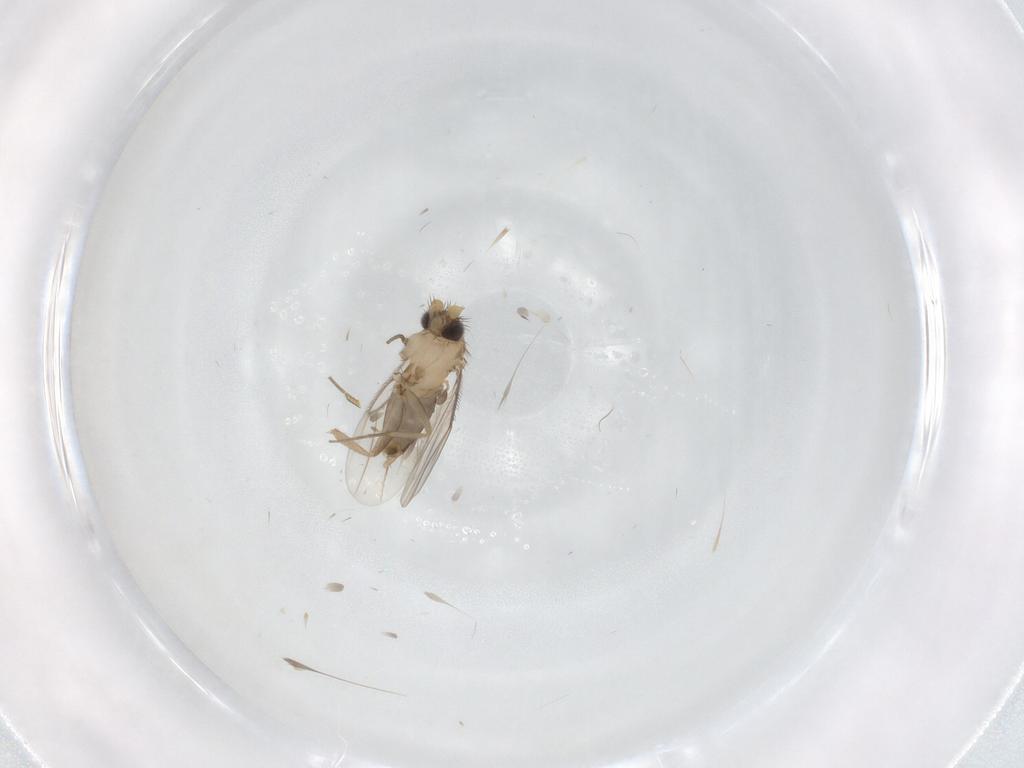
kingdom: Animalia
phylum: Arthropoda
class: Insecta
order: Diptera
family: Phoridae
